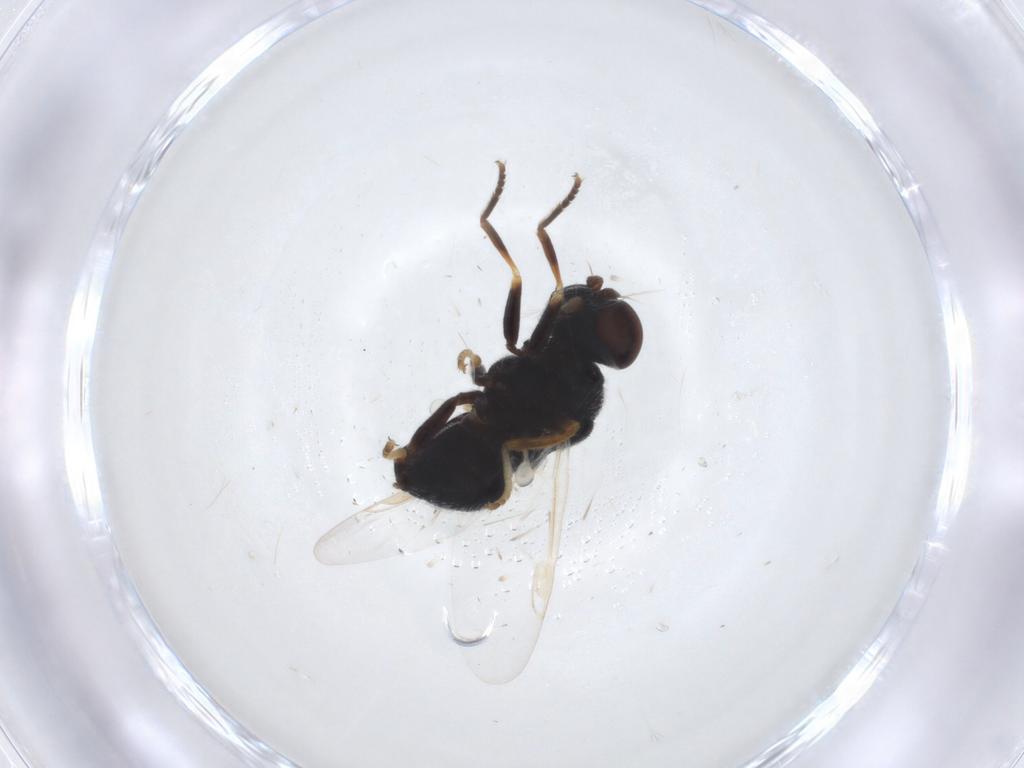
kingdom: Animalia
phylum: Arthropoda
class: Insecta
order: Diptera
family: Stratiomyidae
